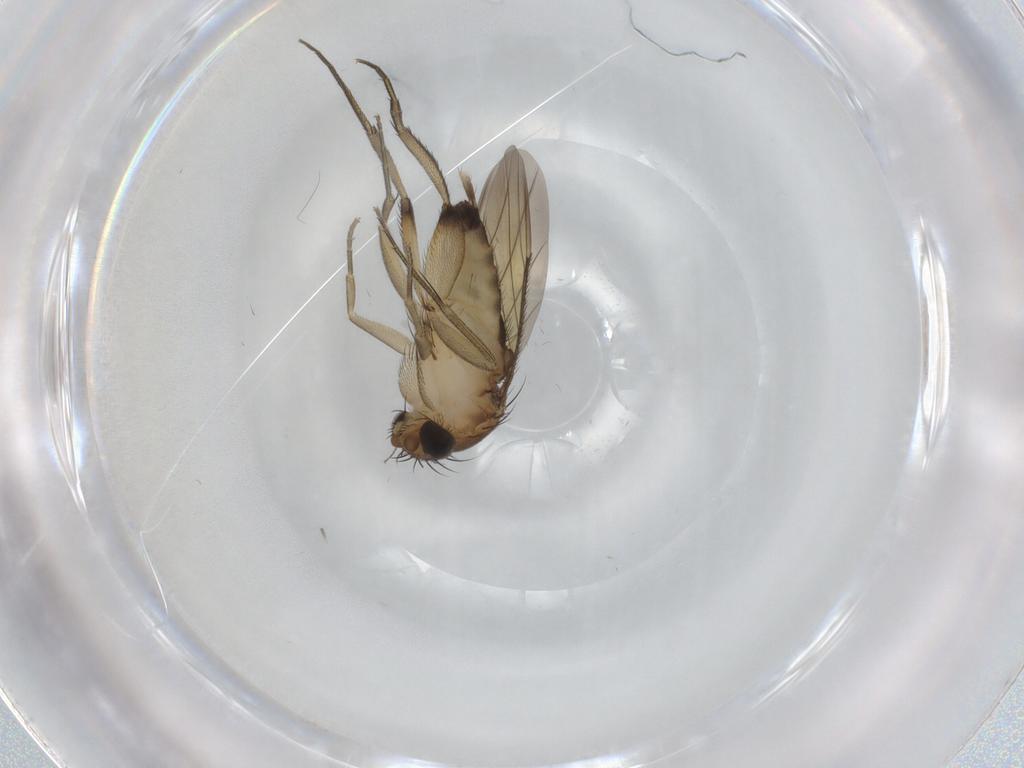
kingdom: Animalia
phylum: Arthropoda
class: Insecta
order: Diptera
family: Phoridae
